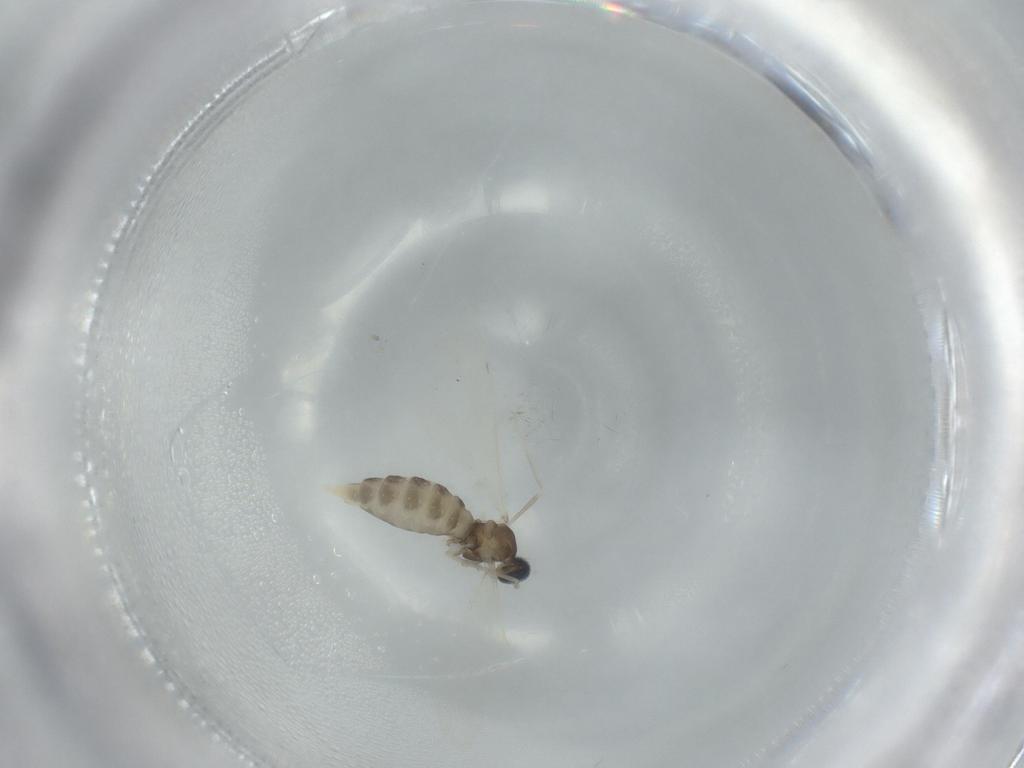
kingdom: Animalia
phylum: Arthropoda
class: Insecta
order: Diptera
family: Cecidomyiidae
